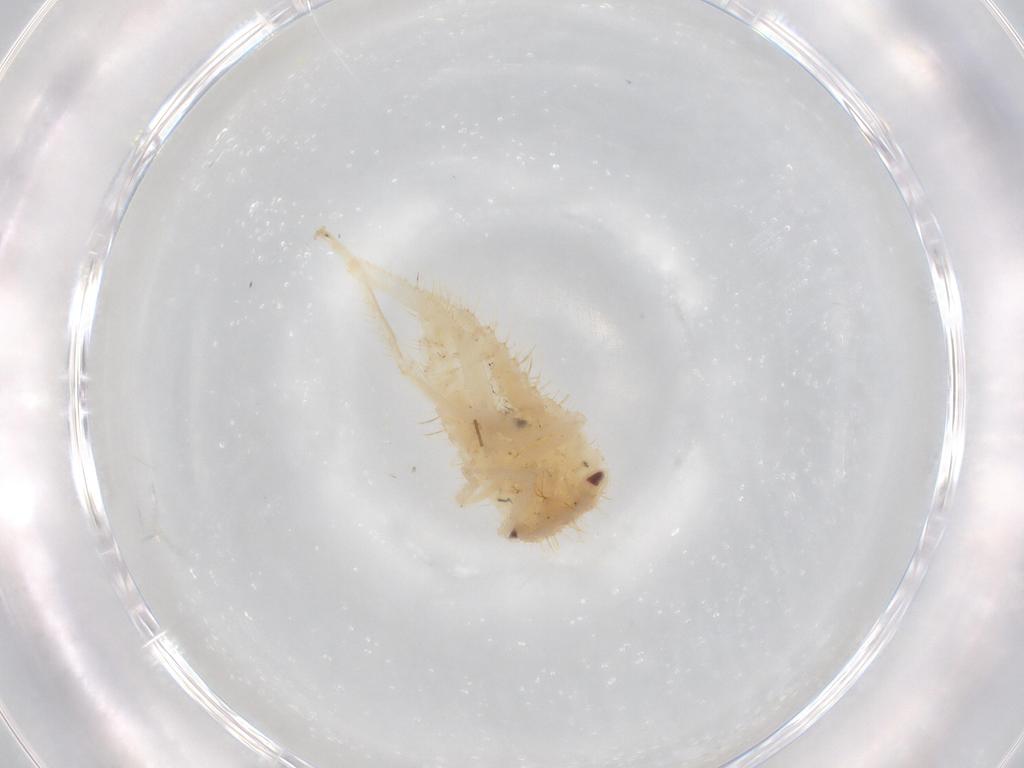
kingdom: Animalia
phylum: Arthropoda
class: Insecta
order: Hemiptera
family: Cicadellidae
